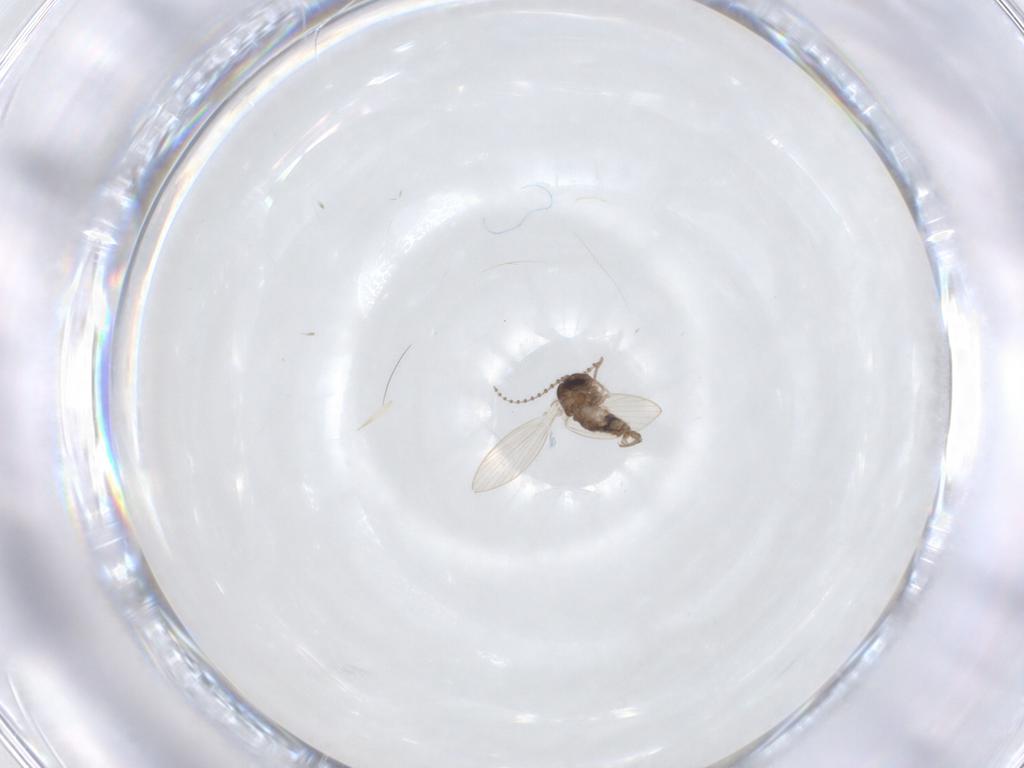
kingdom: Animalia
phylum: Arthropoda
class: Insecta
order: Diptera
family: Psychodidae
